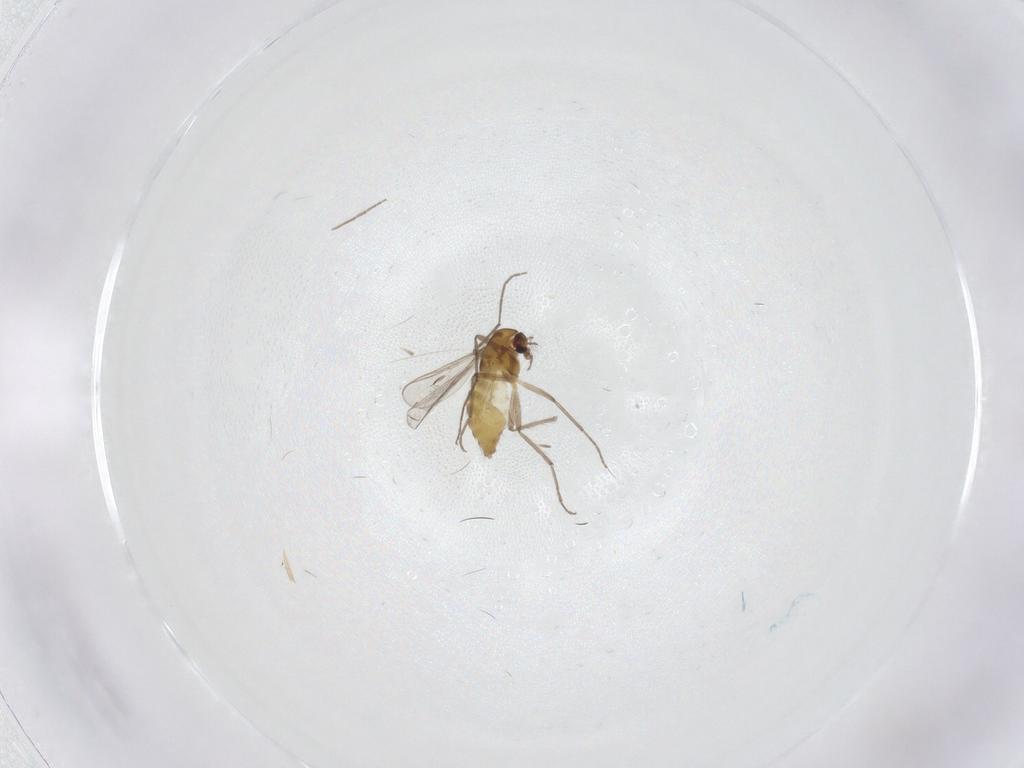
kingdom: Animalia
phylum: Arthropoda
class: Insecta
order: Diptera
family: Chironomidae
